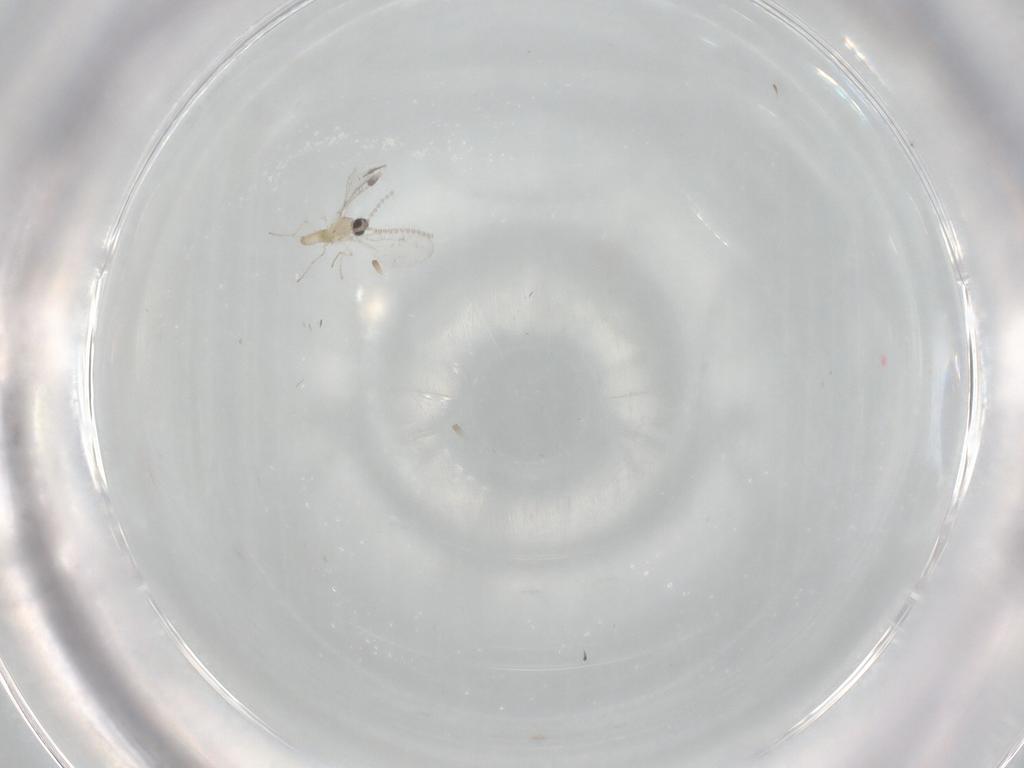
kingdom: Animalia
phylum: Arthropoda
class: Insecta
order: Diptera
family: Cecidomyiidae
